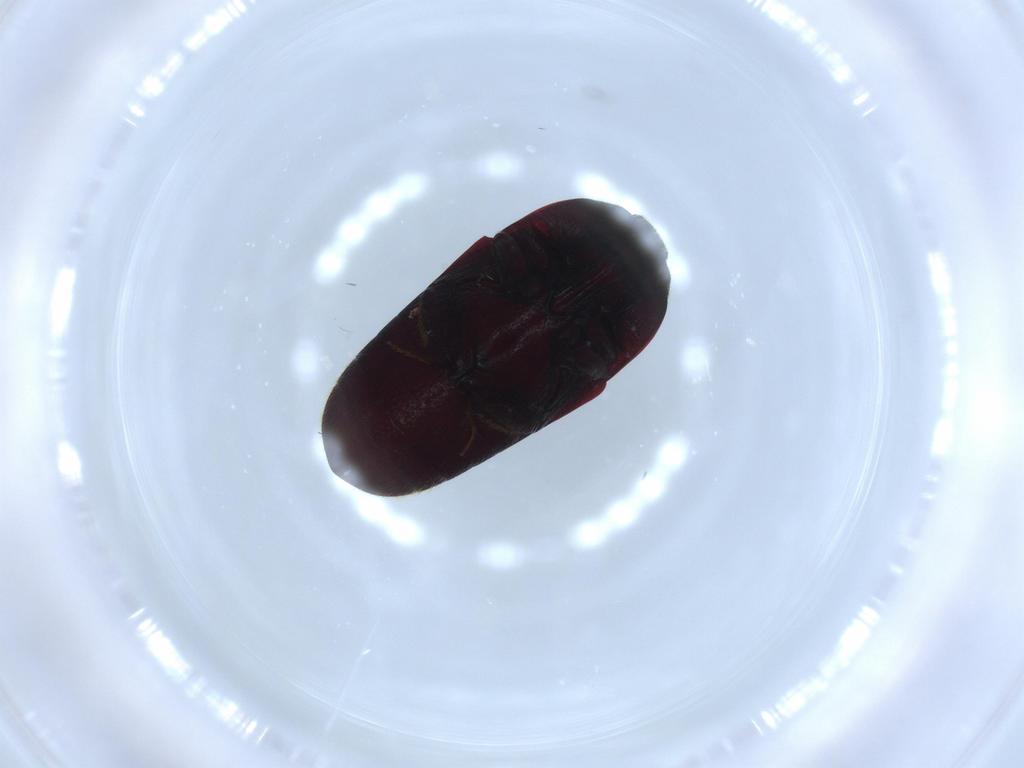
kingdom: Animalia
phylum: Arthropoda
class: Insecta
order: Coleoptera
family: Throscidae
